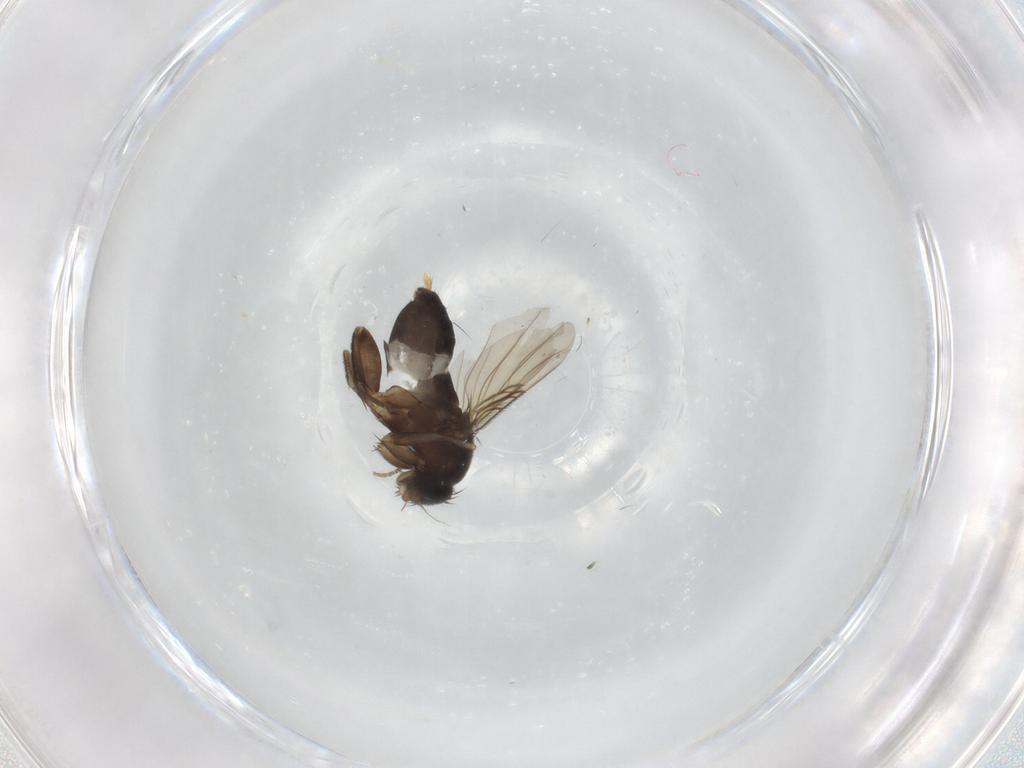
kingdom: Animalia
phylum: Arthropoda
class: Insecta
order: Diptera
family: Phoridae
